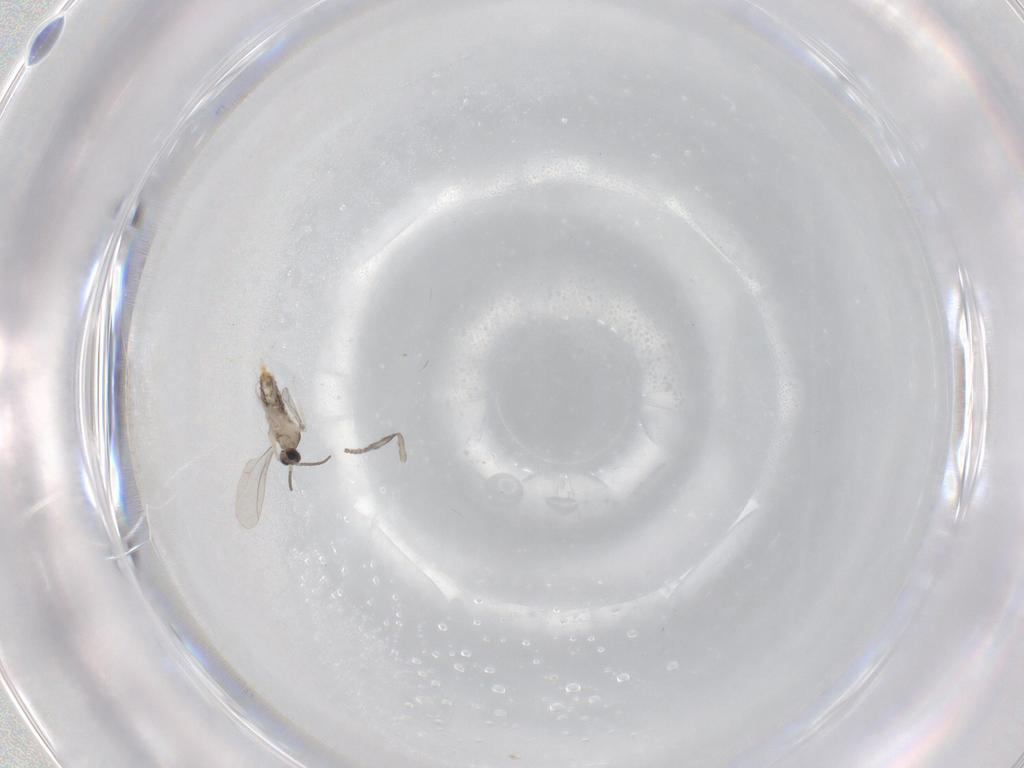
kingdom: Animalia
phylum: Arthropoda
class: Insecta
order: Diptera
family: Cecidomyiidae
